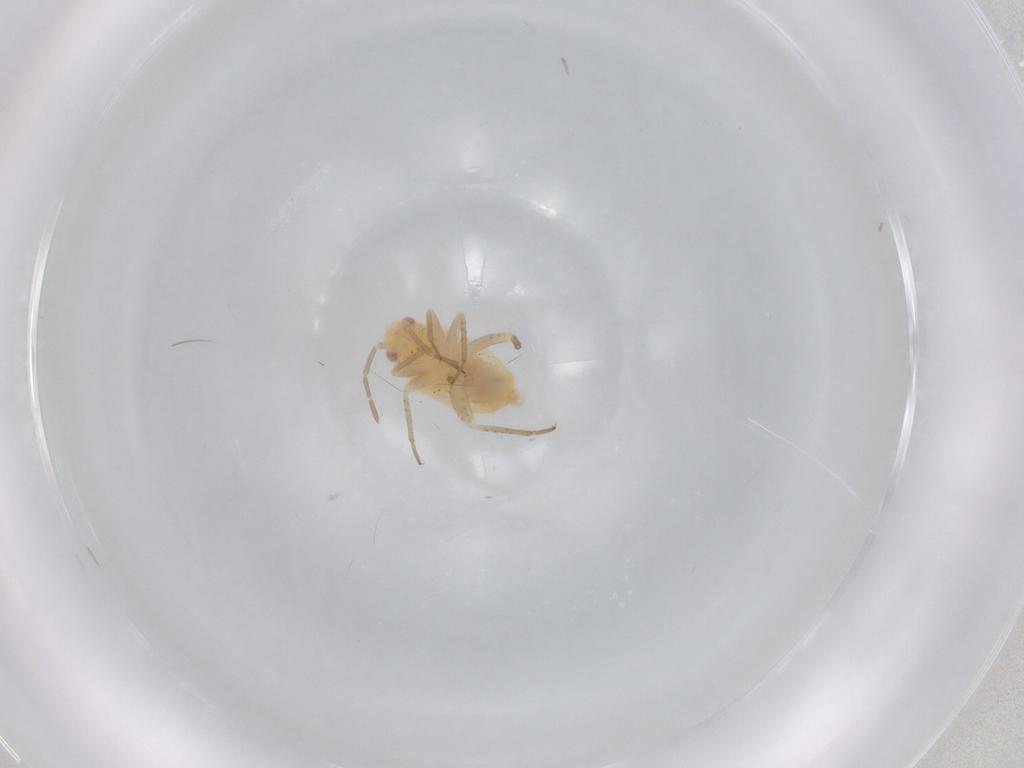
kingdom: Animalia
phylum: Arthropoda
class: Insecta
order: Hemiptera
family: Miridae
